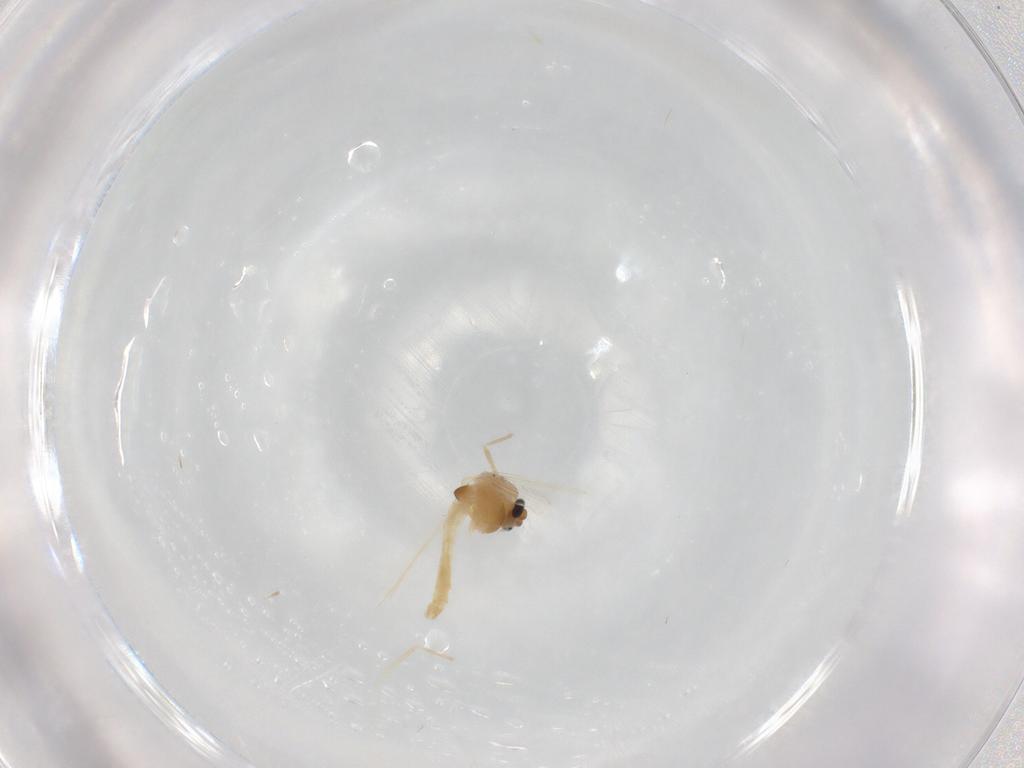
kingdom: Animalia
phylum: Arthropoda
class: Insecta
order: Diptera
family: Chironomidae
